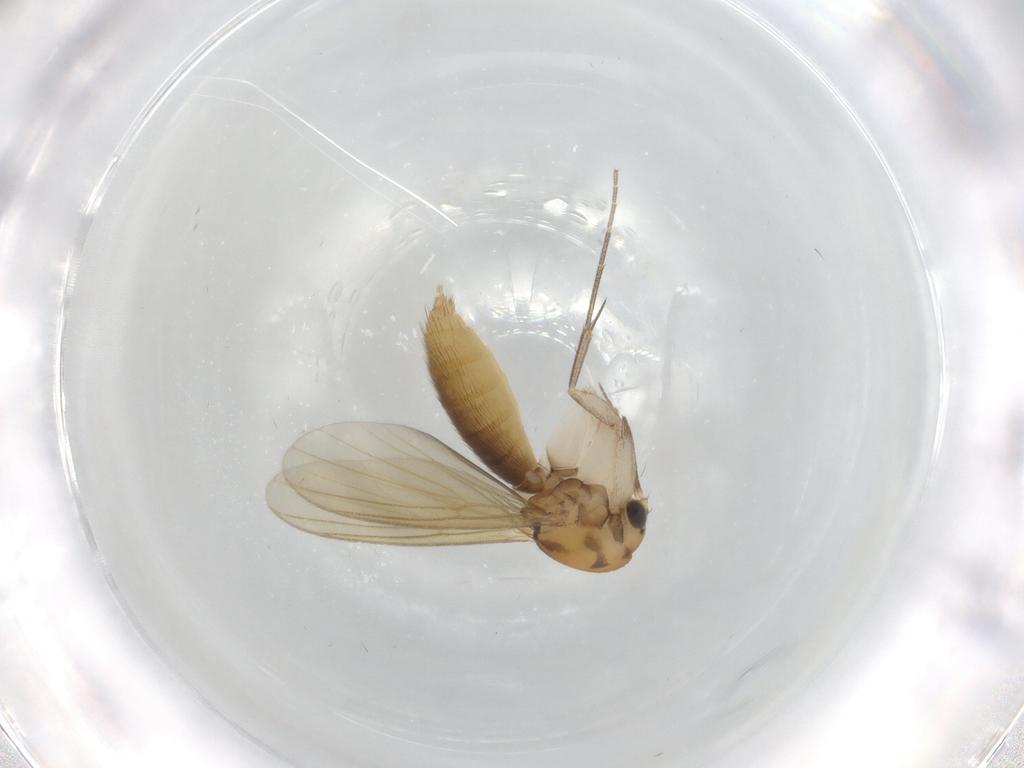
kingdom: Animalia
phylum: Arthropoda
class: Insecta
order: Diptera
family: Mycetophilidae
